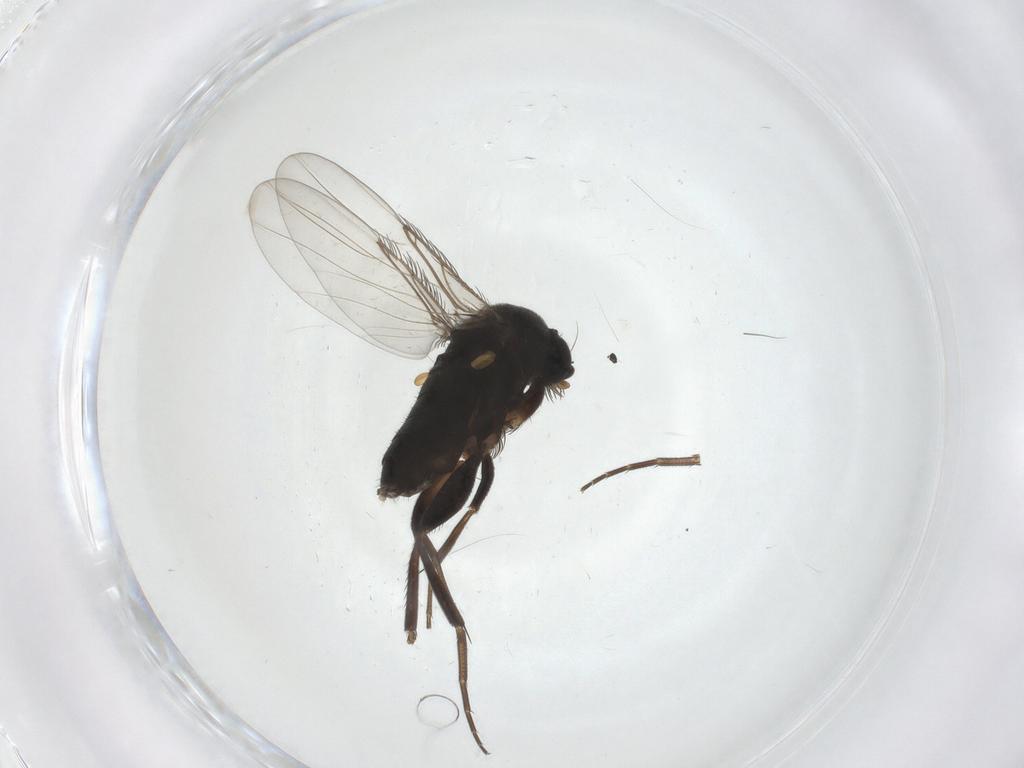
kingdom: Animalia
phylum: Arthropoda
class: Insecta
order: Diptera
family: Phoridae
